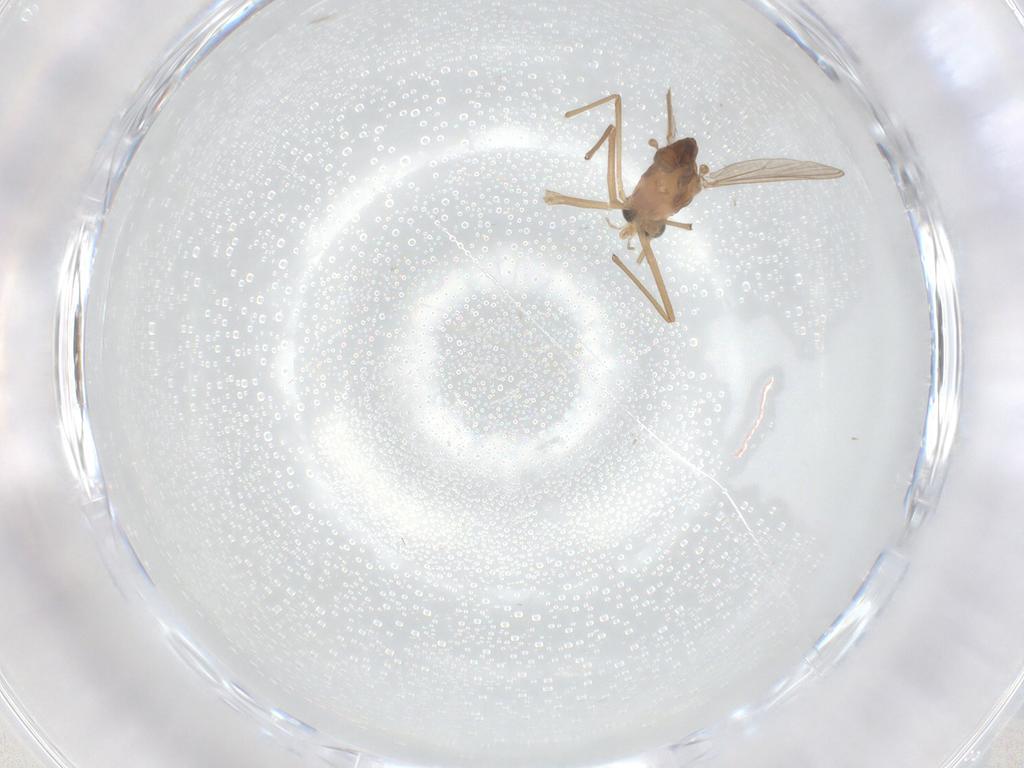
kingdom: Animalia
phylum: Arthropoda
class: Insecta
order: Diptera
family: Chironomidae
